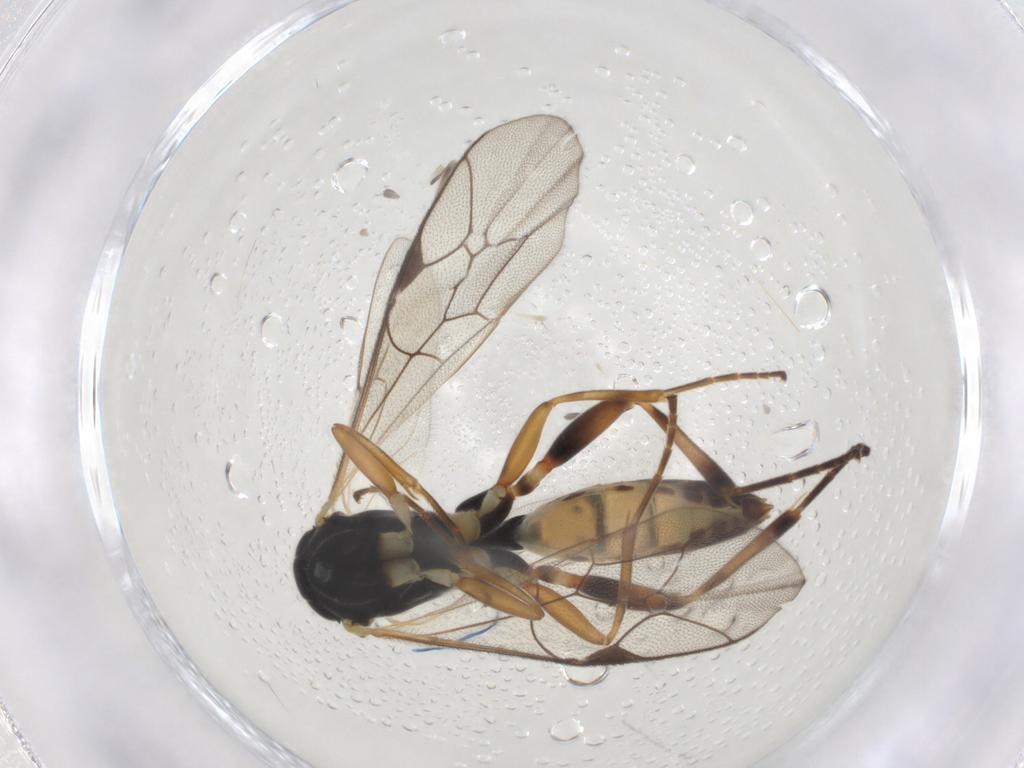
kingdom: Animalia
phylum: Arthropoda
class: Insecta
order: Hymenoptera
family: Ichneumonidae
